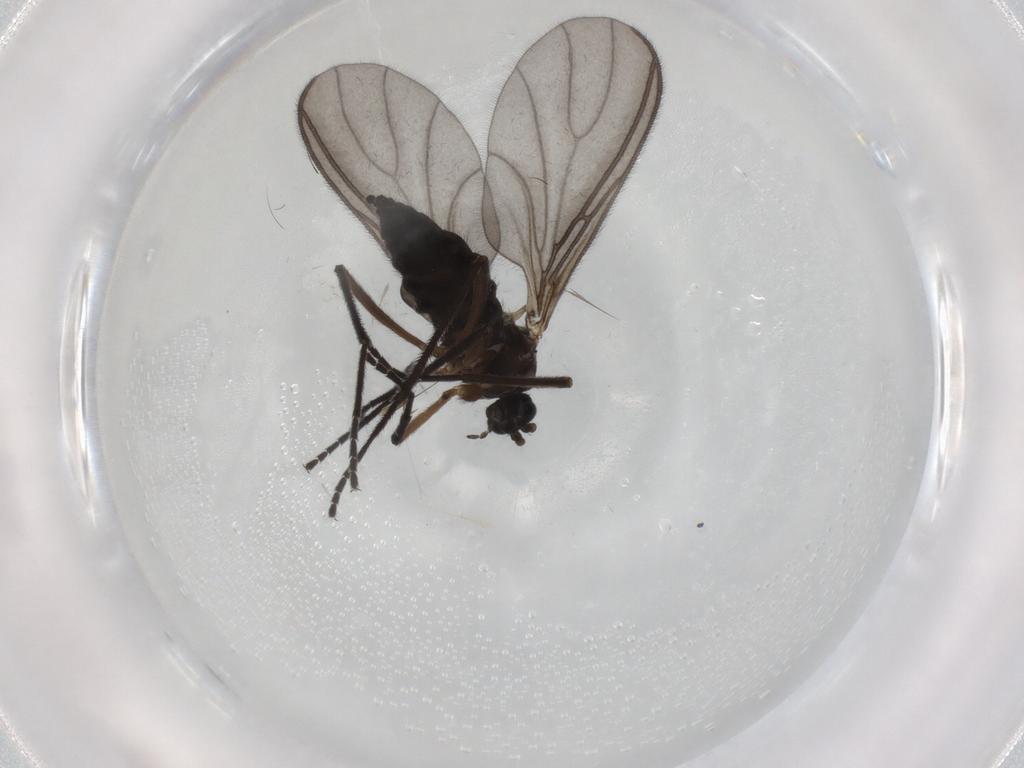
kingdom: Animalia
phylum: Arthropoda
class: Insecta
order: Diptera
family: Sciaridae
